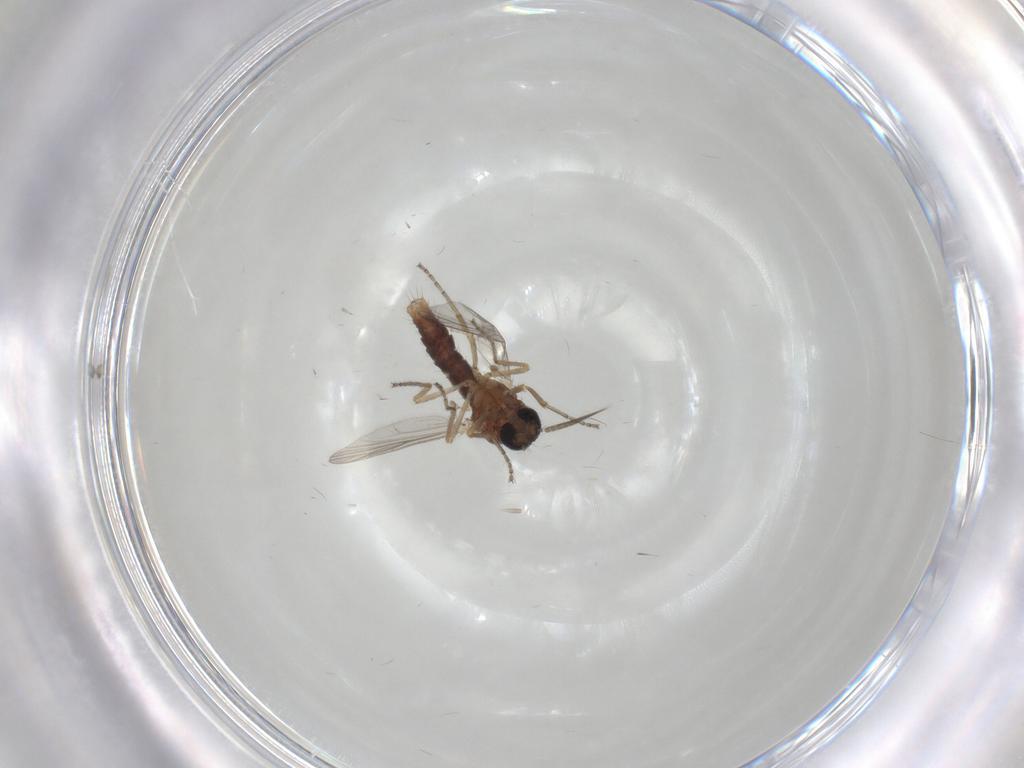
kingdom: Animalia
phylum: Arthropoda
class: Insecta
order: Diptera
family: Ceratopogonidae
